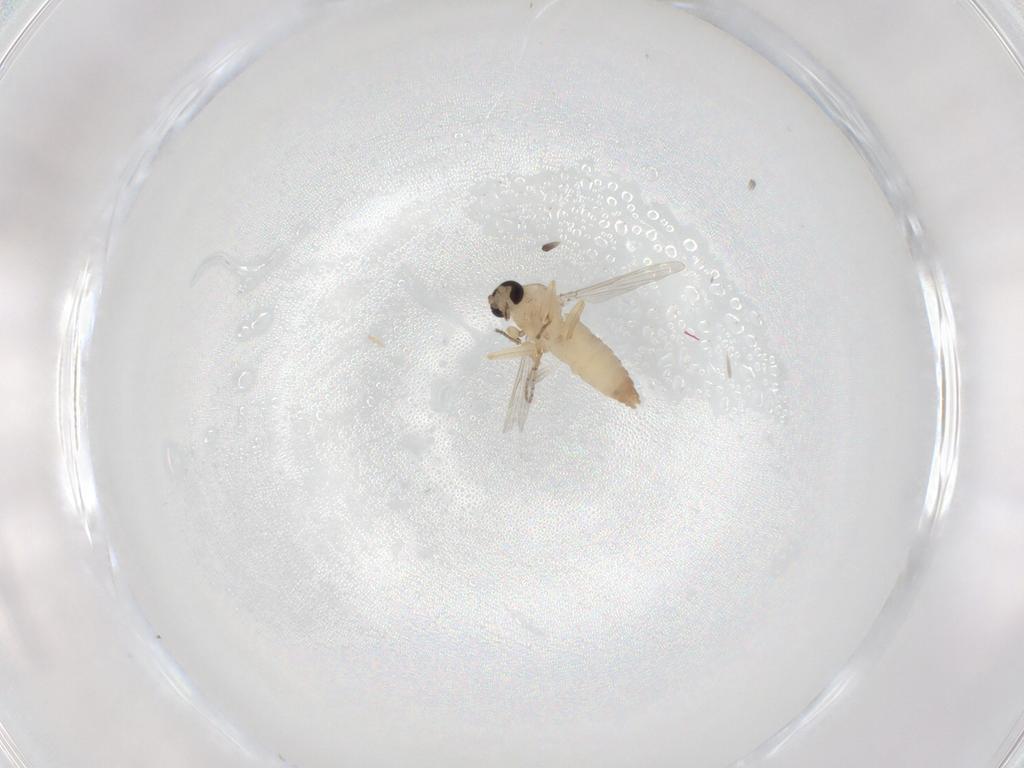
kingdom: Animalia
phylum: Arthropoda
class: Insecta
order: Diptera
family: Ceratopogonidae
